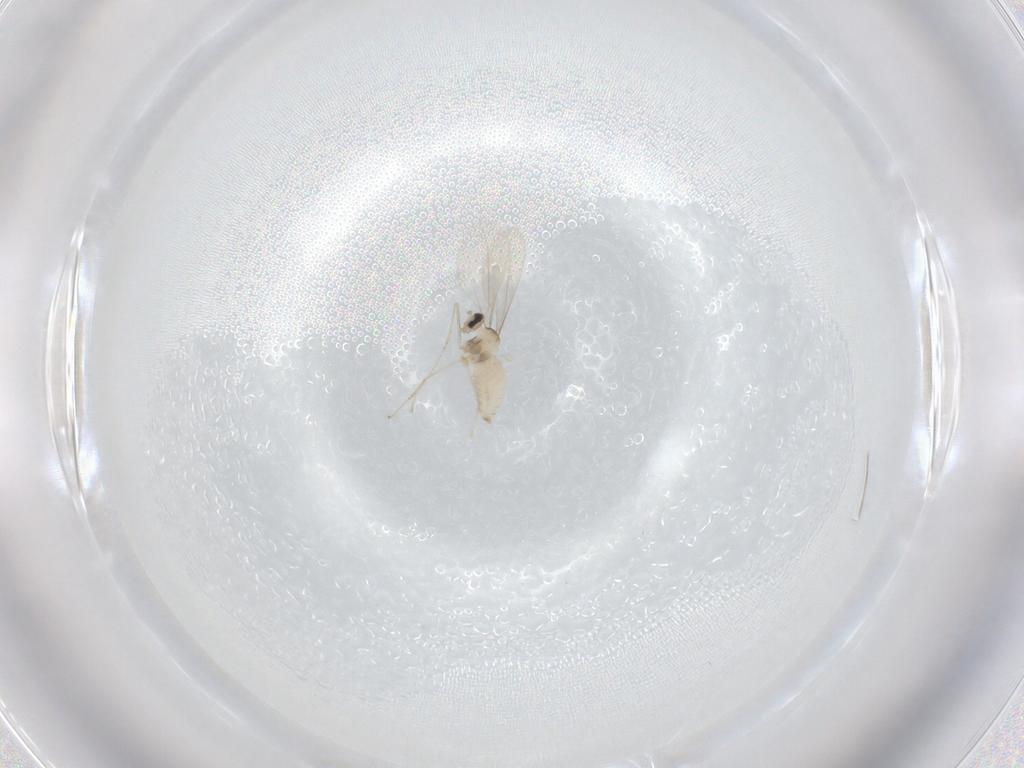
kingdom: Animalia
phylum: Arthropoda
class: Insecta
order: Diptera
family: Cecidomyiidae
